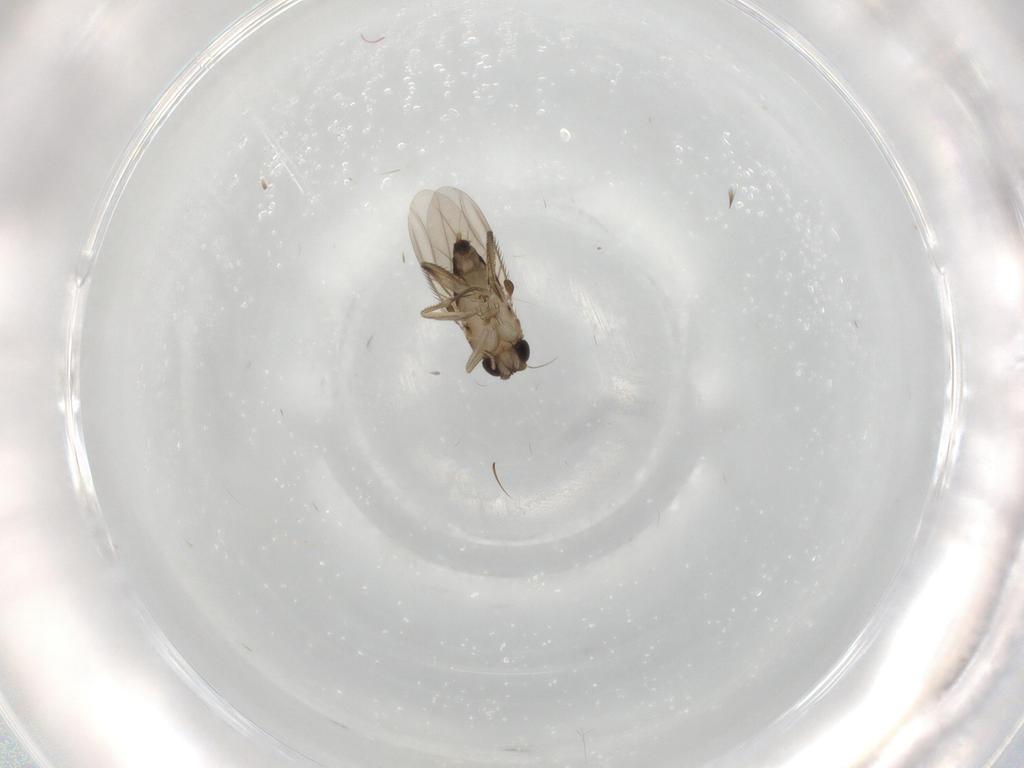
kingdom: Animalia
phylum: Arthropoda
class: Insecta
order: Diptera
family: Phoridae
